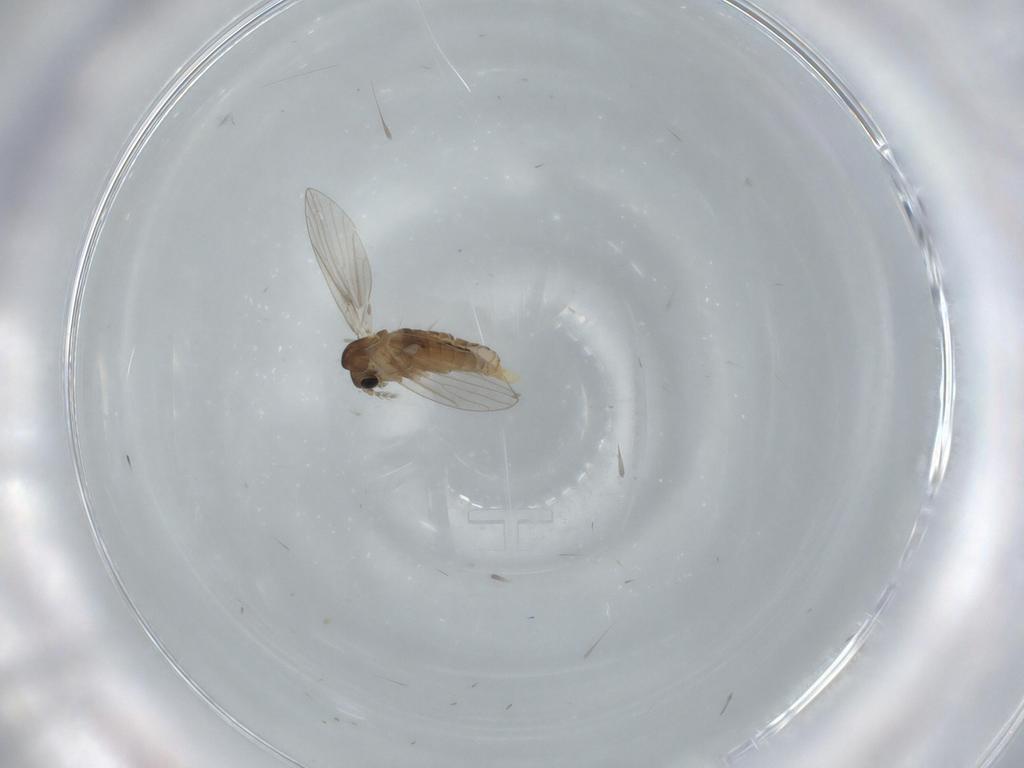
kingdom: Animalia
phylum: Arthropoda
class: Insecta
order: Diptera
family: Psychodidae
